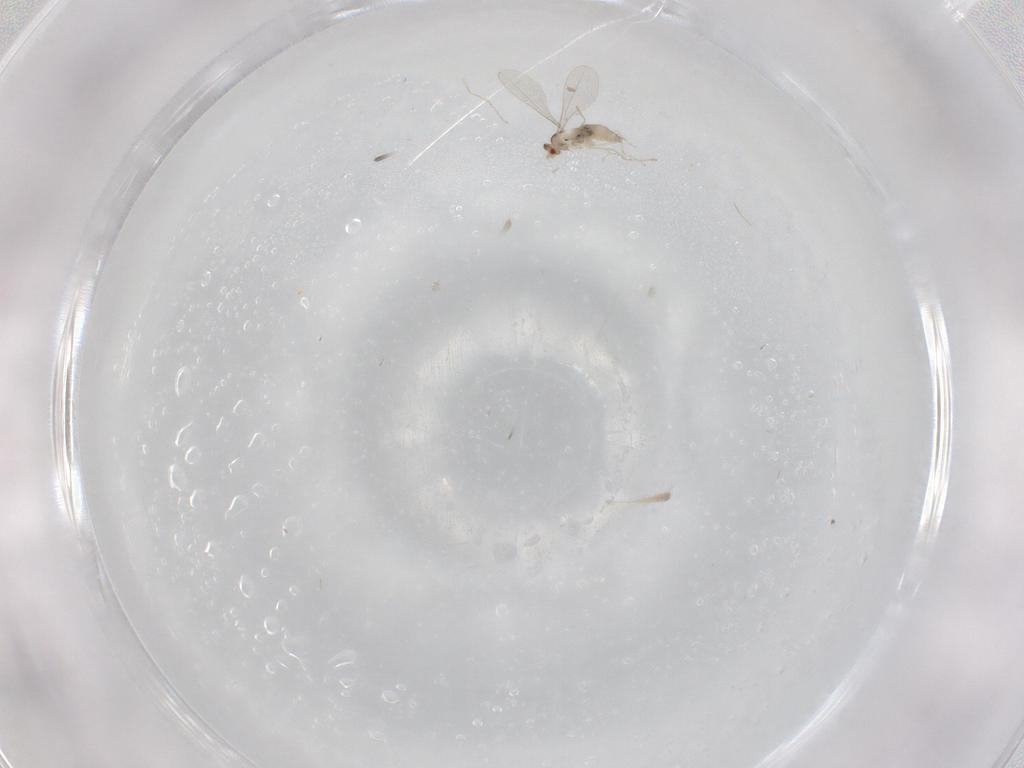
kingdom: Animalia
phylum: Arthropoda
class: Insecta
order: Diptera
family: Cecidomyiidae
